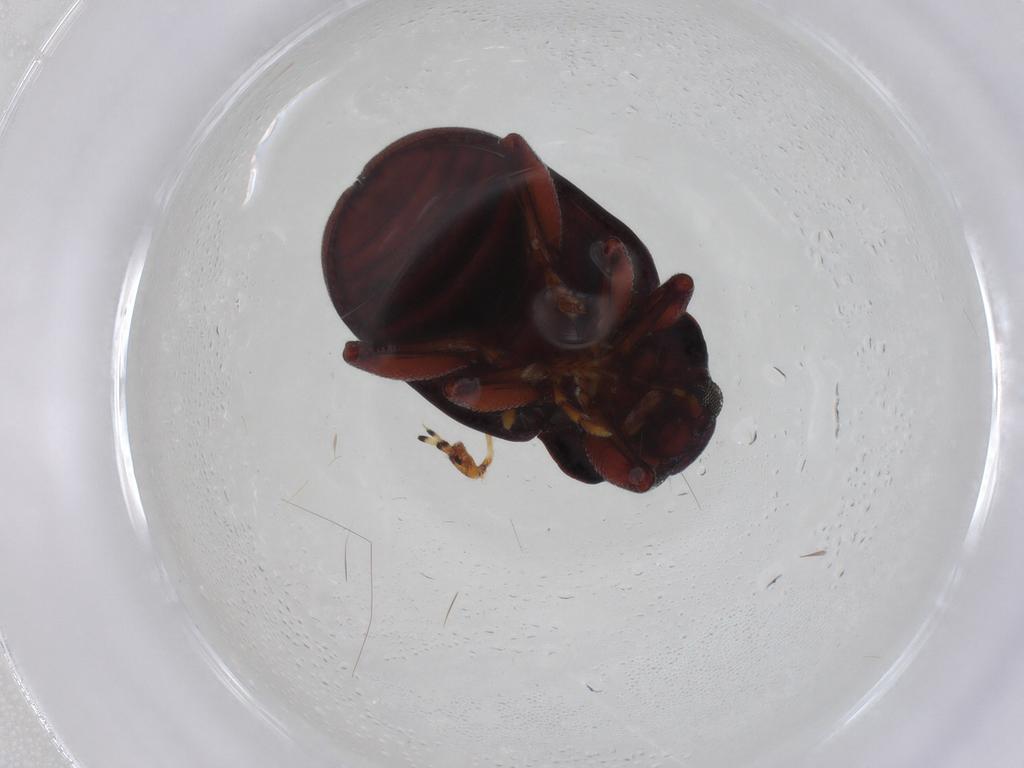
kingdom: Animalia
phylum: Arthropoda
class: Insecta
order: Coleoptera
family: Chrysomelidae
